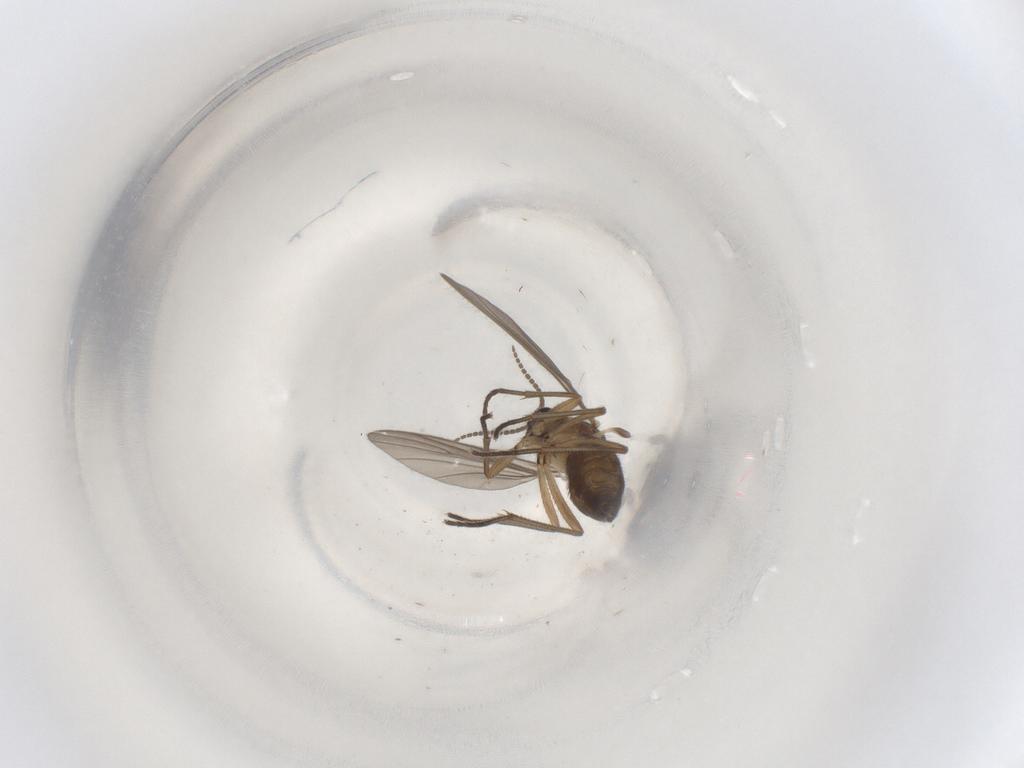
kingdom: Animalia
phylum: Arthropoda
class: Insecta
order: Diptera
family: Sciaridae
